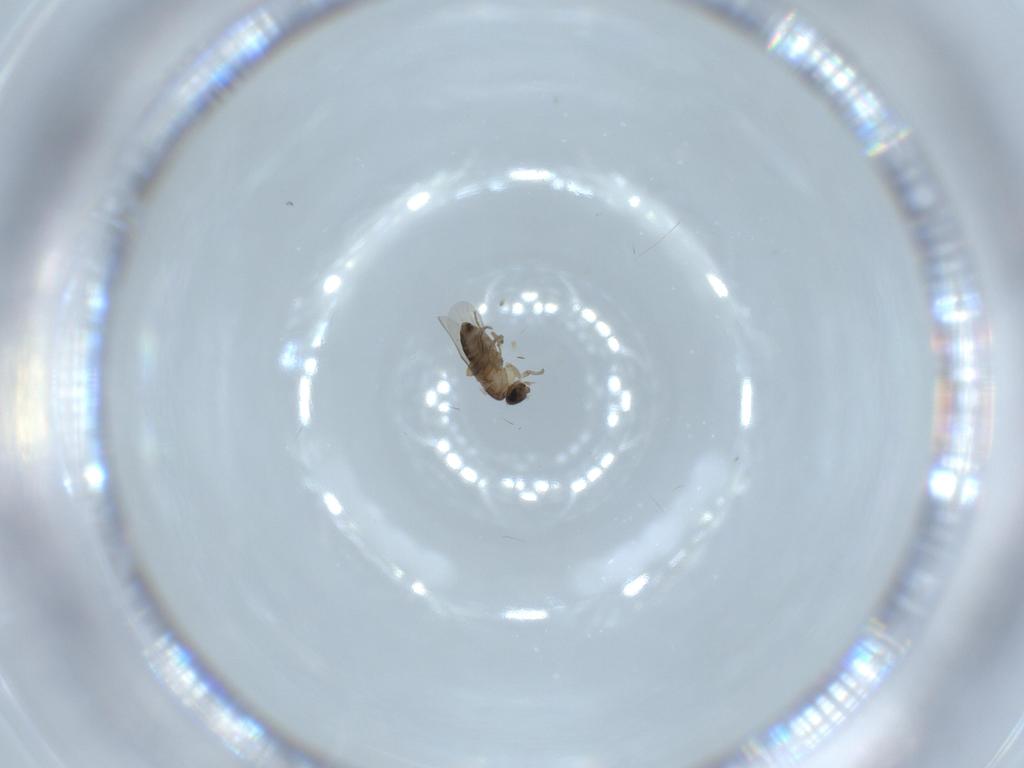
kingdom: Animalia
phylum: Arthropoda
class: Insecta
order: Diptera
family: Phoridae
